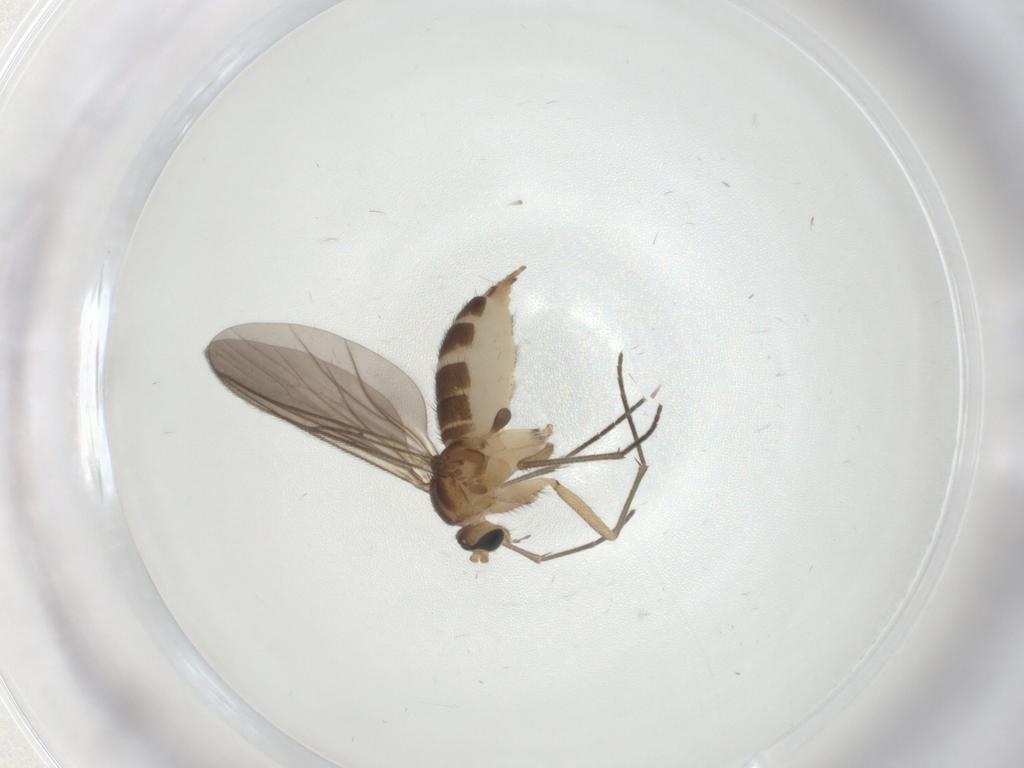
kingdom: Animalia
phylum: Arthropoda
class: Insecta
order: Diptera
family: Sciaridae
